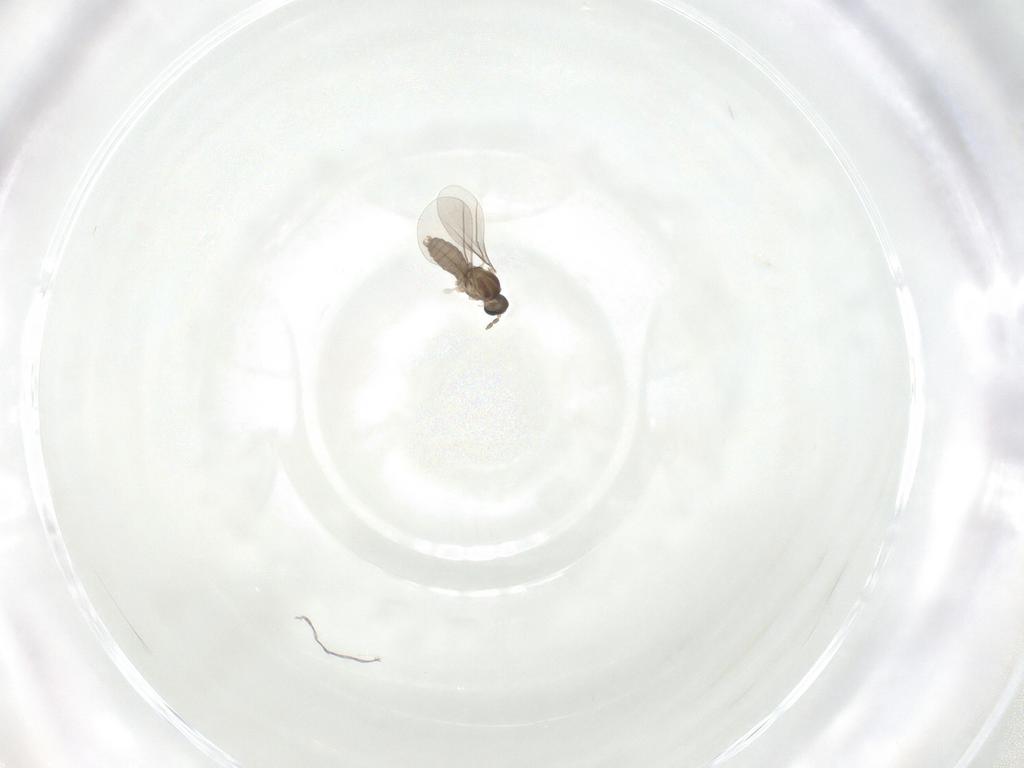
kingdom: Animalia
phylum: Arthropoda
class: Insecta
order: Diptera
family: Cecidomyiidae
